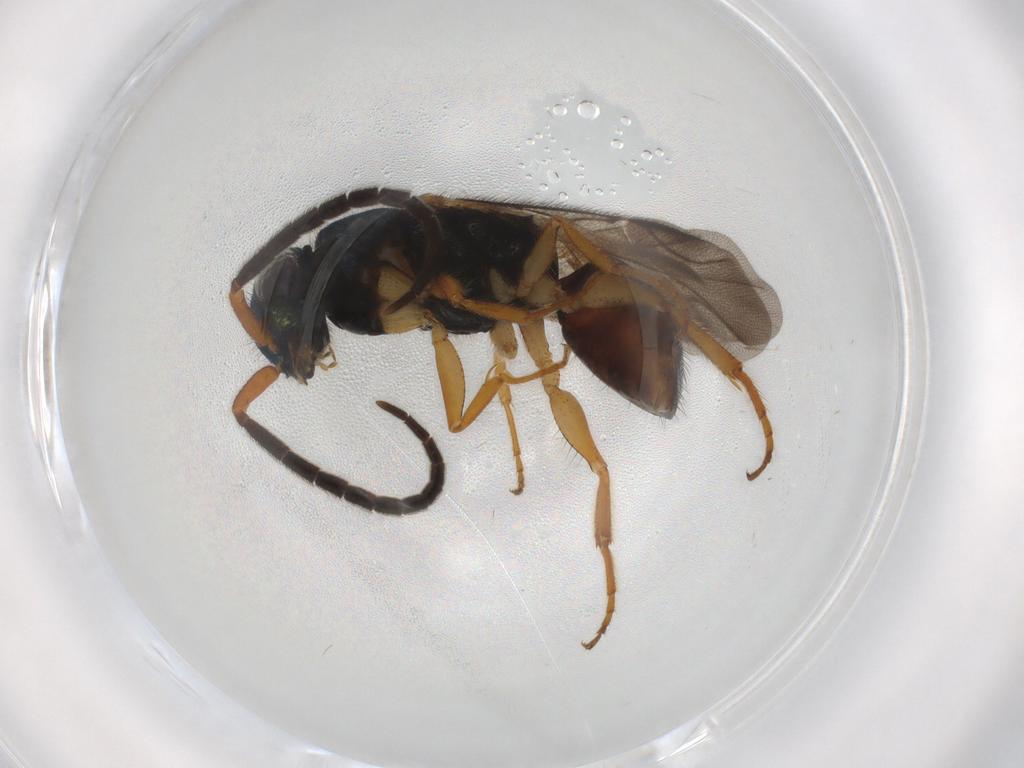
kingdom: Animalia
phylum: Arthropoda
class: Insecta
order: Hymenoptera
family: Chrysididae
